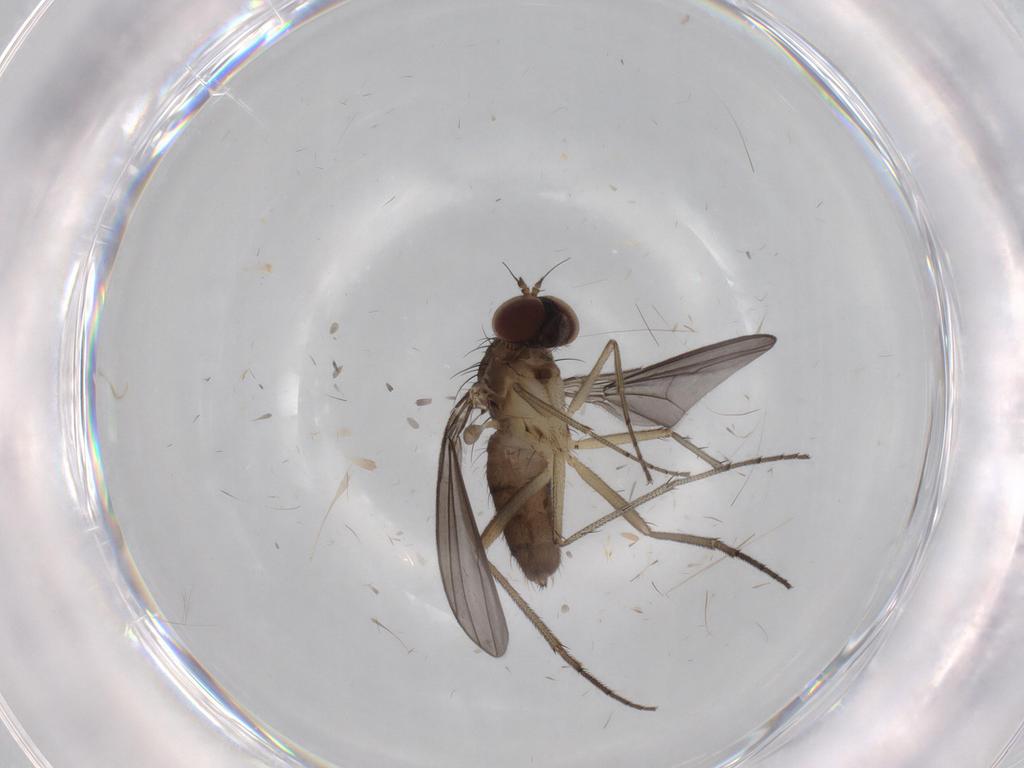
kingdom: Animalia
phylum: Arthropoda
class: Insecta
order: Diptera
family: Dolichopodidae
